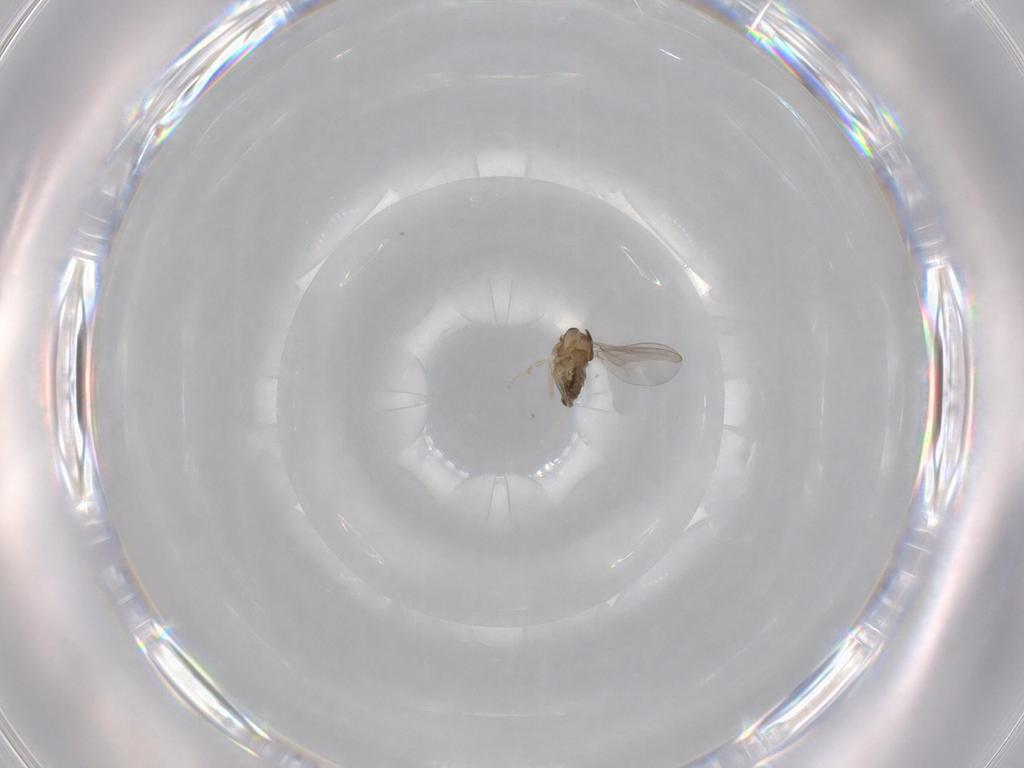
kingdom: Animalia
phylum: Arthropoda
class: Insecta
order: Diptera
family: Cecidomyiidae
